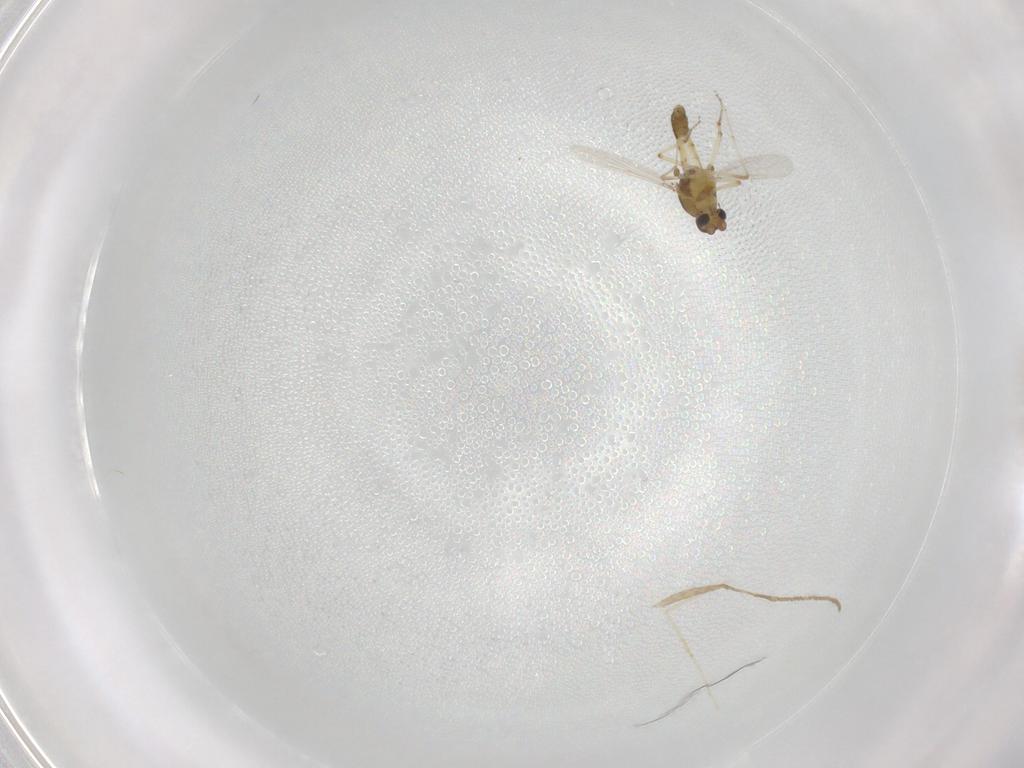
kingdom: Animalia
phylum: Arthropoda
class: Insecta
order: Diptera
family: Ceratopogonidae
